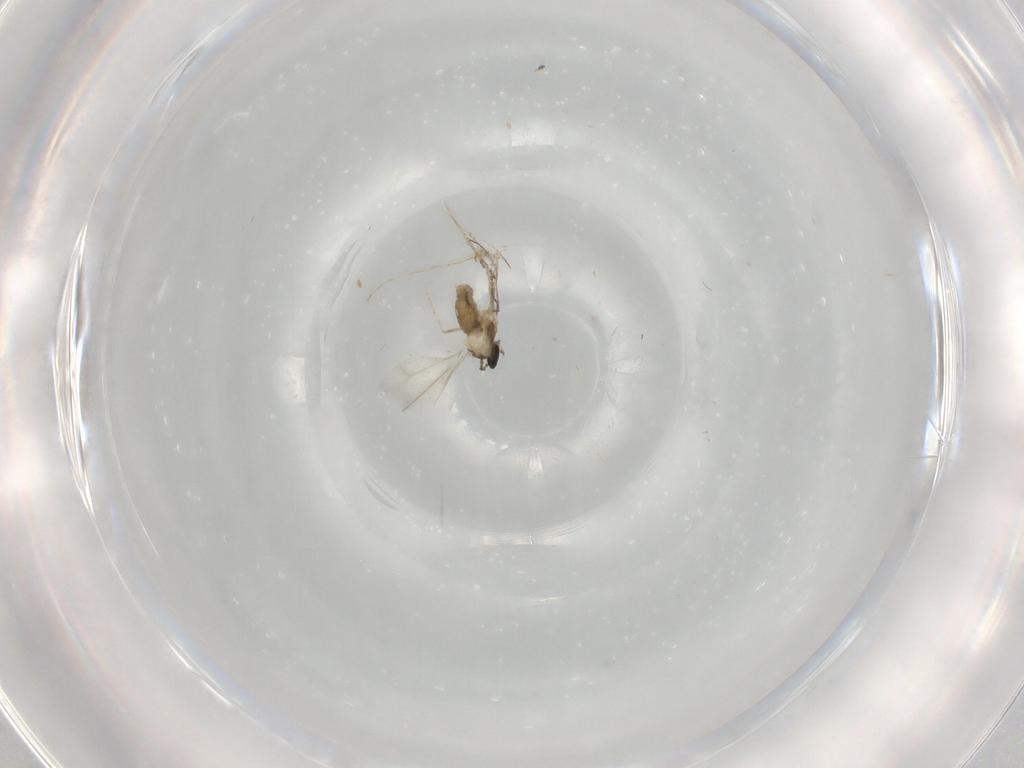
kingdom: Animalia
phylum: Arthropoda
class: Insecta
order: Diptera
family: Cecidomyiidae
